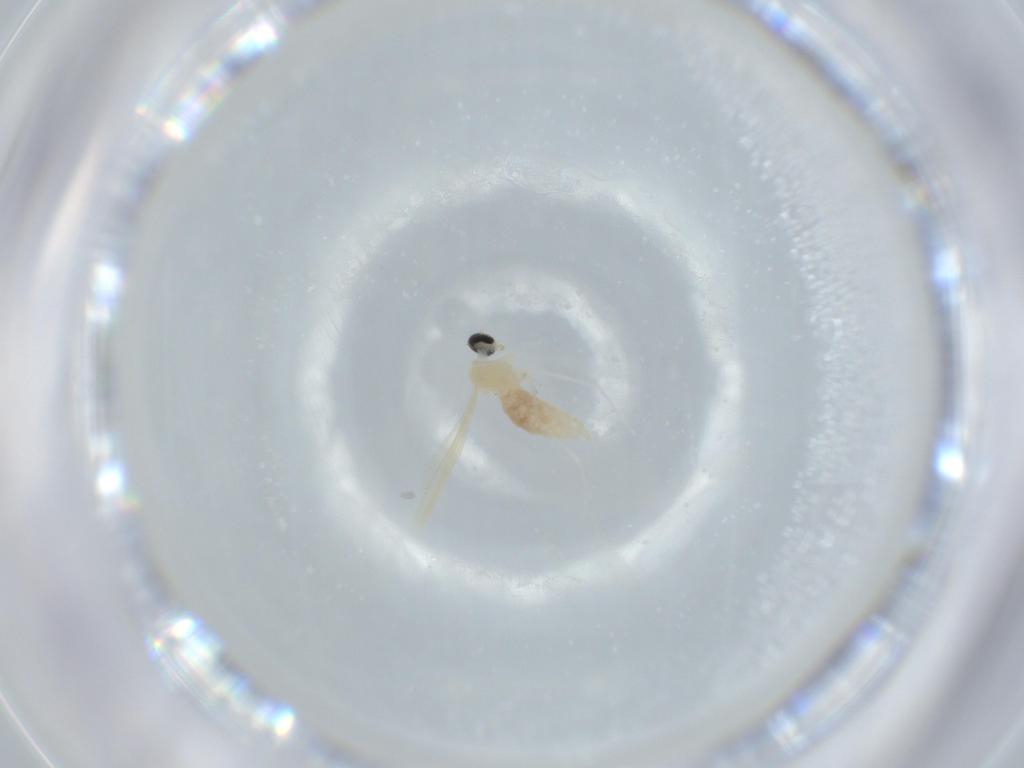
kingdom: Animalia
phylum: Arthropoda
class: Insecta
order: Diptera
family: Cecidomyiidae
